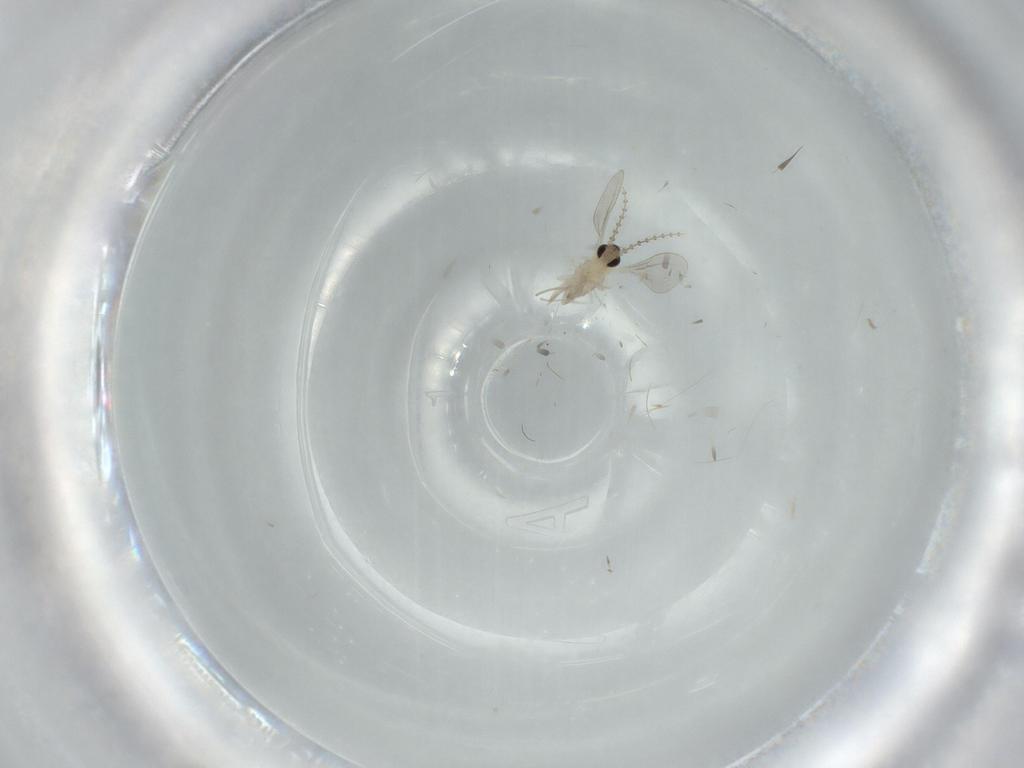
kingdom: Animalia
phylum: Arthropoda
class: Insecta
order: Diptera
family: Cecidomyiidae
